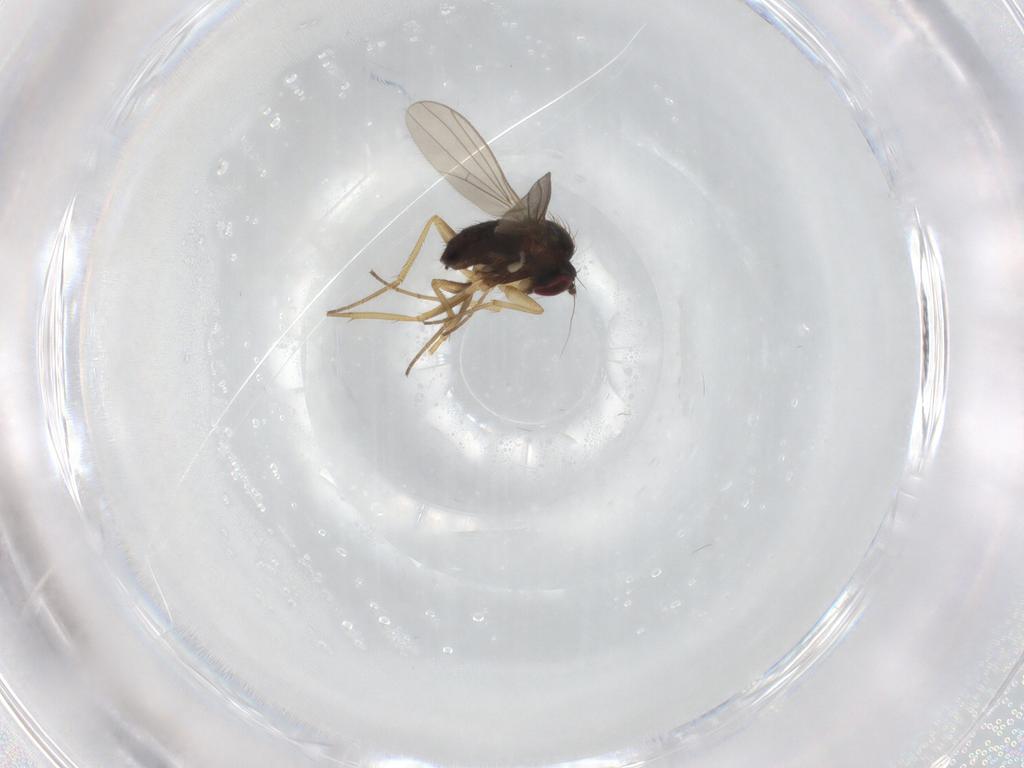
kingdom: Animalia
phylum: Arthropoda
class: Insecta
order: Diptera
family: Dolichopodidae
